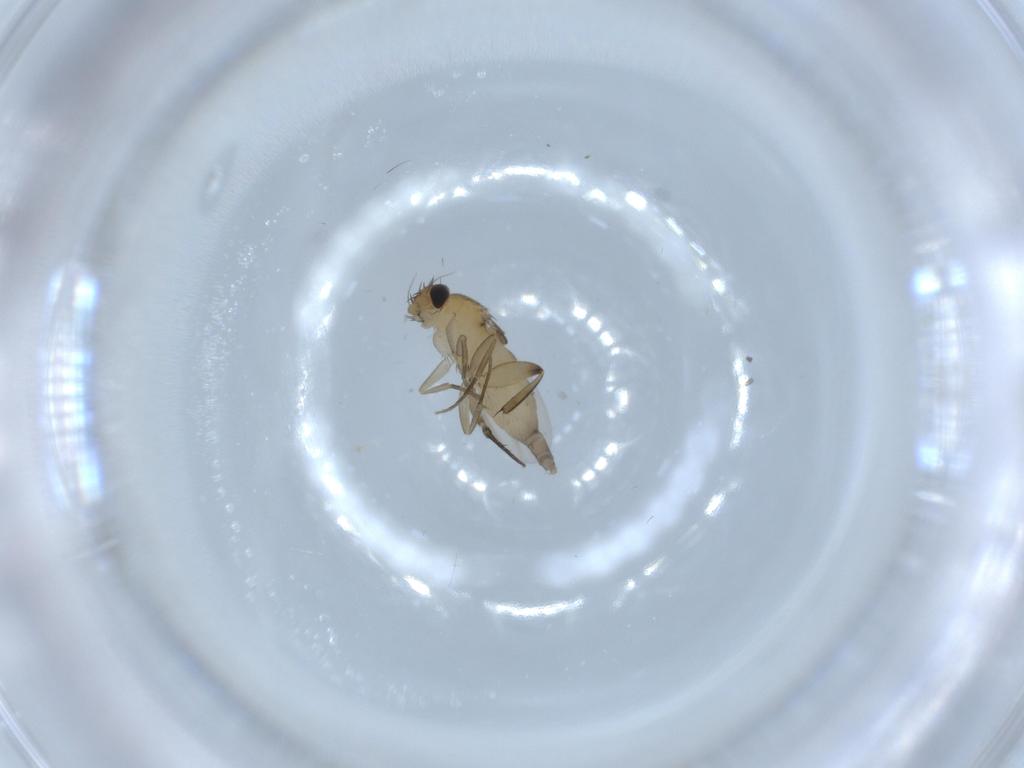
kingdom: Animalia
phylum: Arthropoda
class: Insecta
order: Diptera
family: Phoridae
